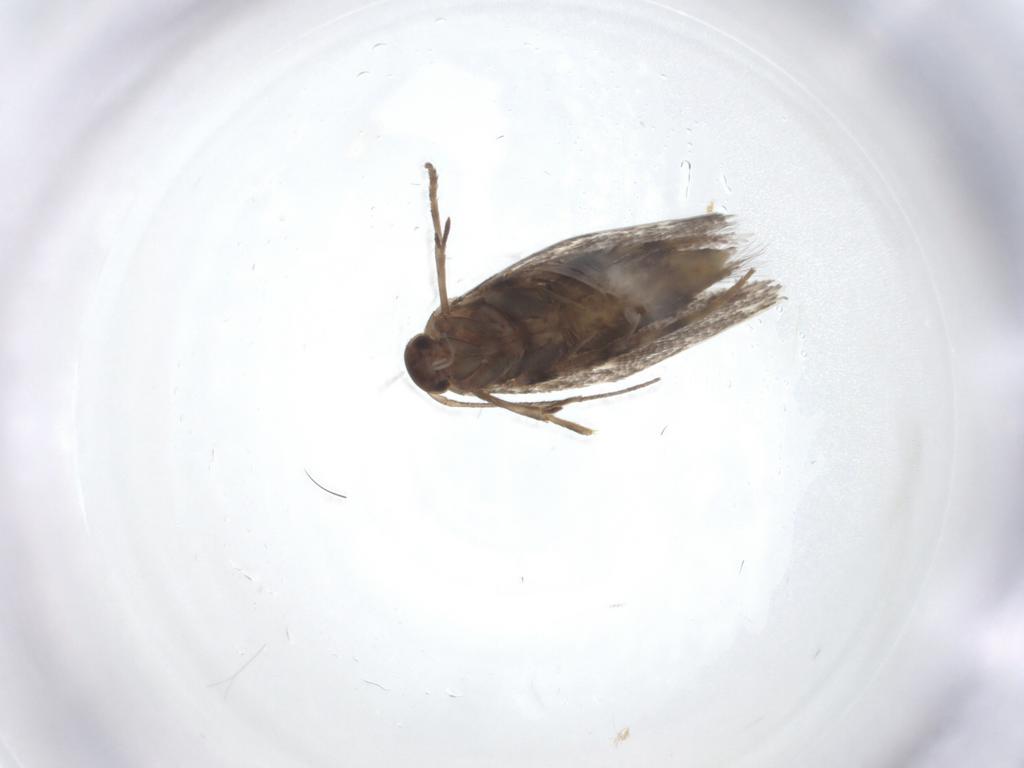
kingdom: Animalia
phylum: Arthropoda
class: Insecta
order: Lepidoptera
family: Elachistidae
